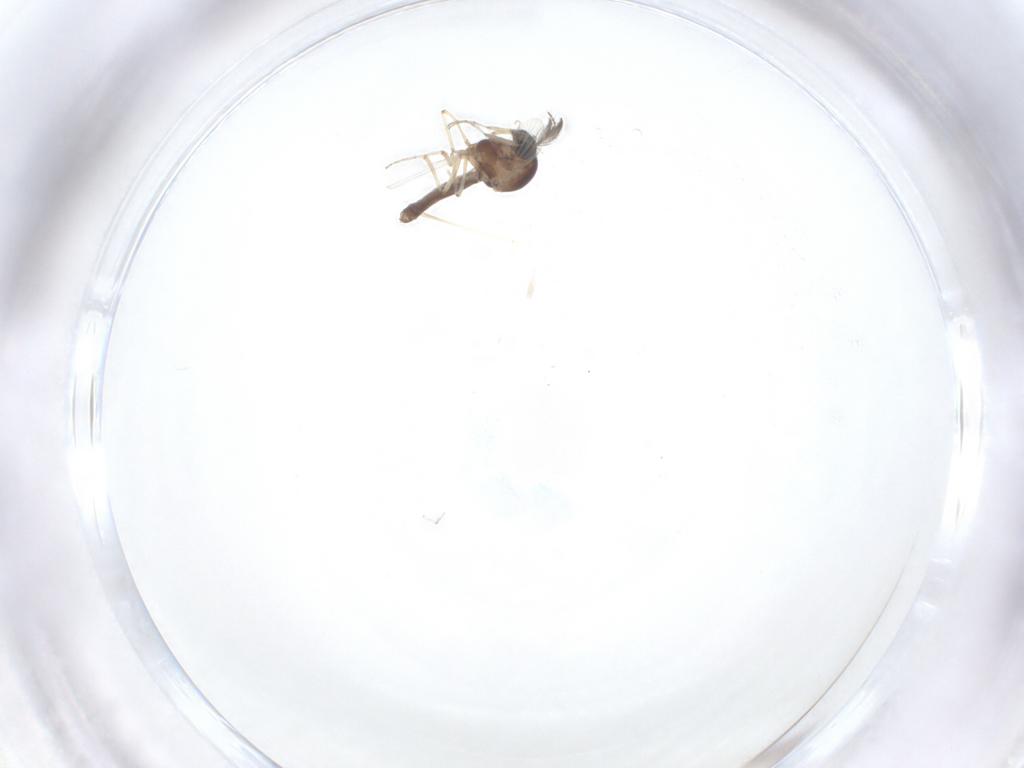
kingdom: Animalia
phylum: Arthropoda
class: Insecta
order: Diptera
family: Ceratopogonidae
